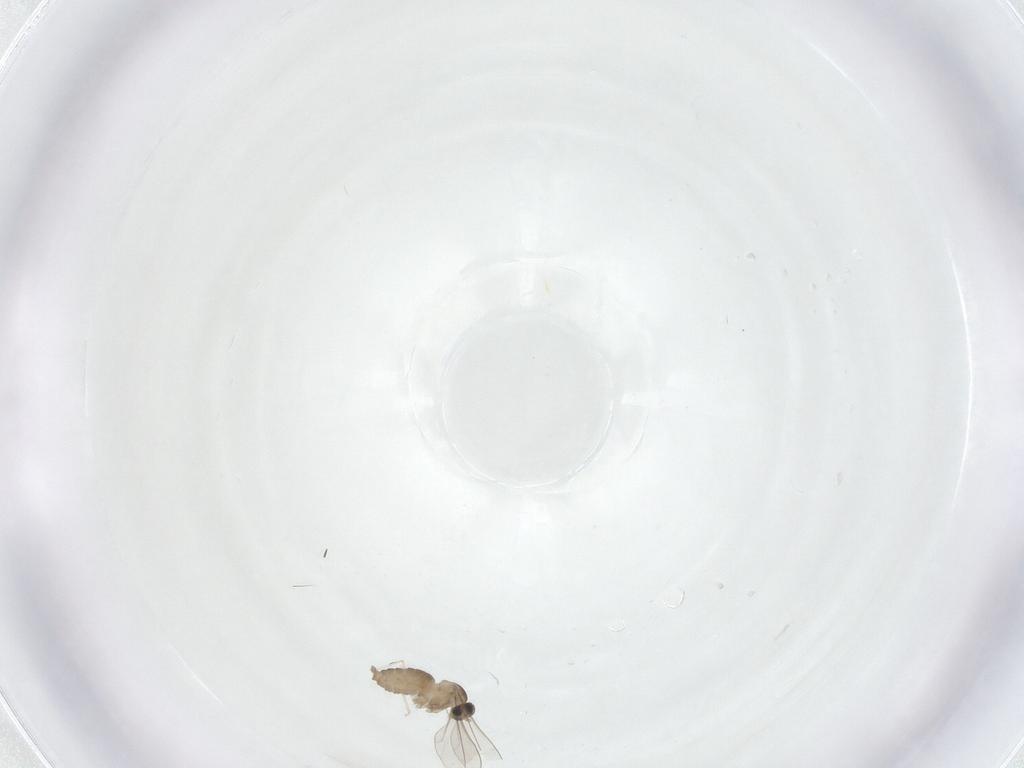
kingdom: Animalia
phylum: Arthropoda
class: Insecta
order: Diptera
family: Cecidomyiidae
